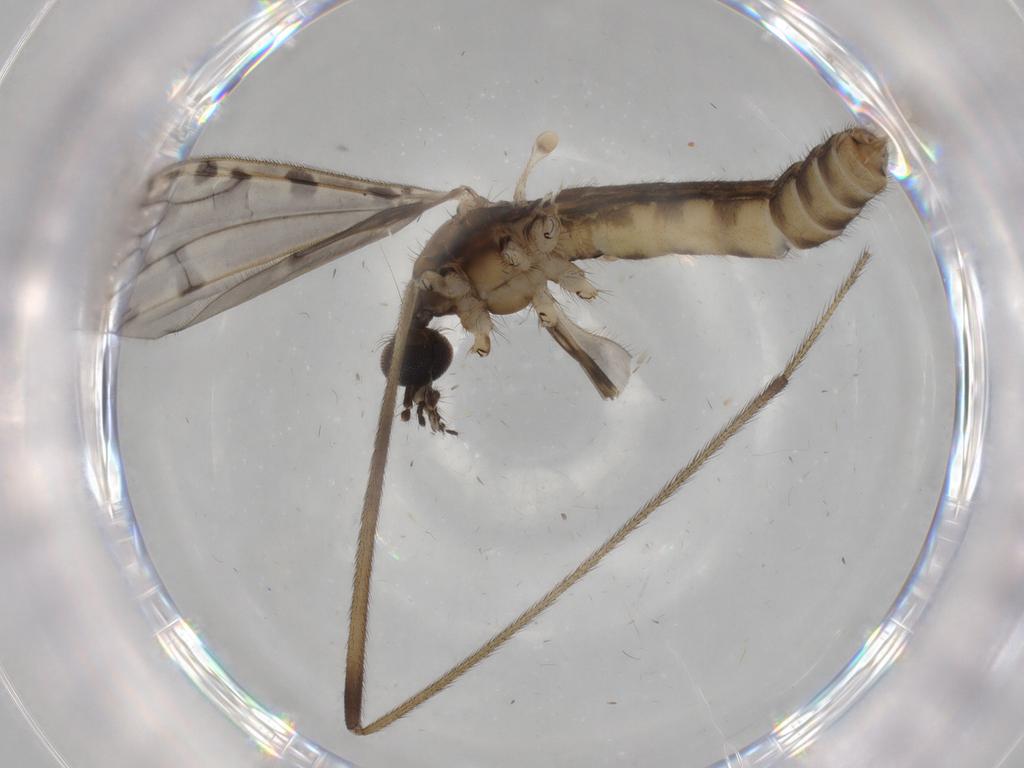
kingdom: Animalia
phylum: Arthropoda
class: Insecta
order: Diptera
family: Limoniidae
